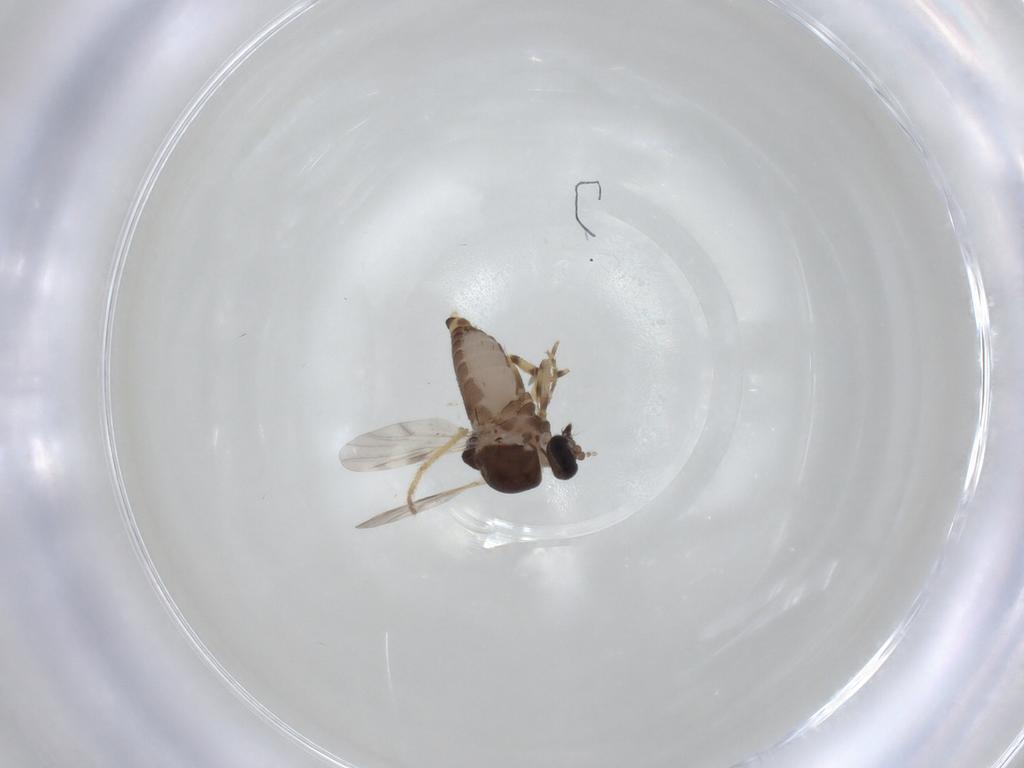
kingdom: Animalia
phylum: Arthropoda
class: Insecta
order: Diptera
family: Ceratopogonidae
